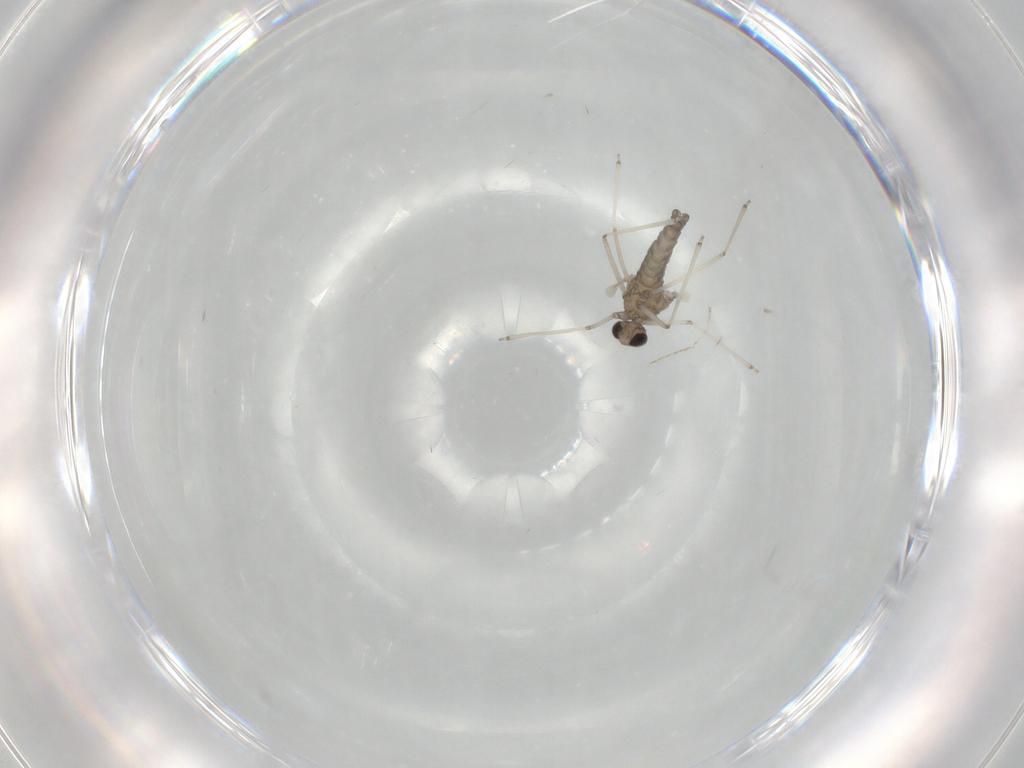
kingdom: Animalia
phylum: Arthropoda
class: Insecta
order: Diptera
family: Cecidomyiidae
